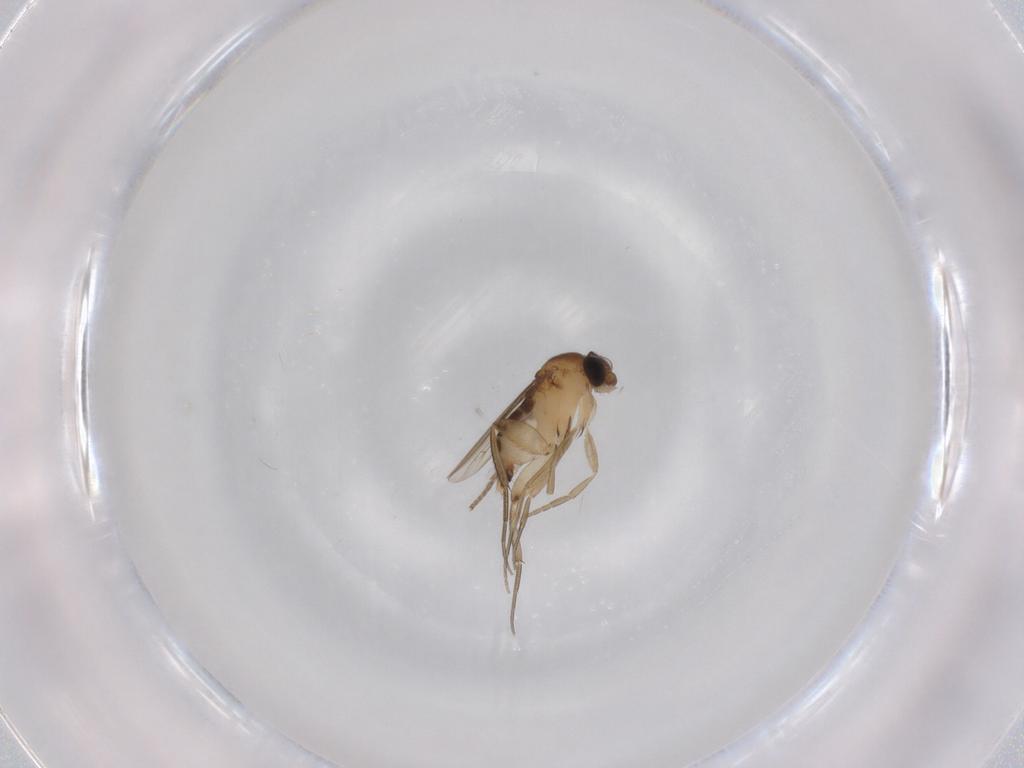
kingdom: Animalia
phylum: Arthropoda
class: Insecta
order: Diptera
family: Phoridae
